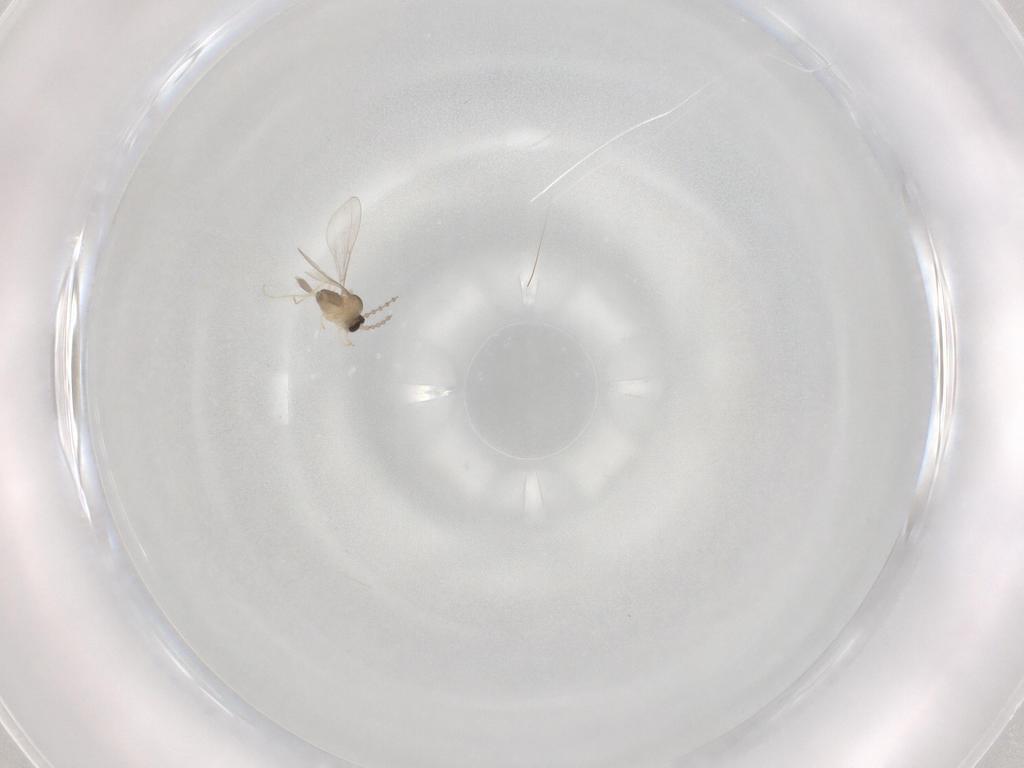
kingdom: Animalia
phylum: Arthropoda
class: Insecta
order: Diptera
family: Cecidomyiidae
